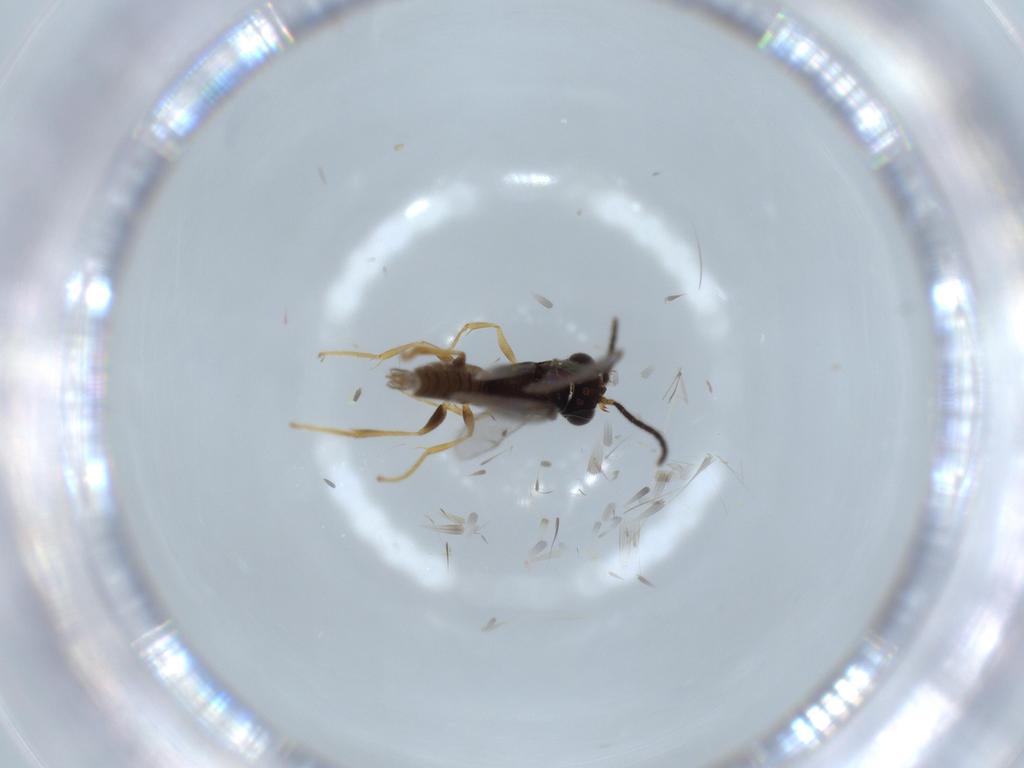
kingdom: Animalia
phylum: Arthropoda
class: Insecta
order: Hymenoptera
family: Dryinidae
